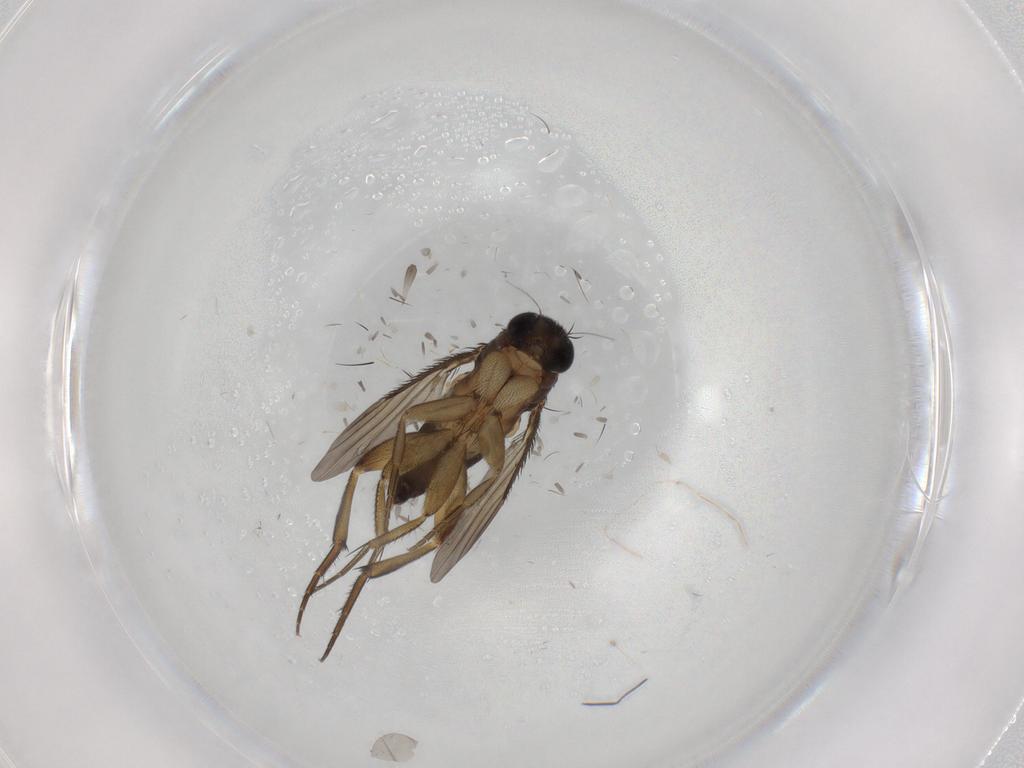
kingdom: Animalia
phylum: Arthropoda
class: Insecta
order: Diptera
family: Phoridae
